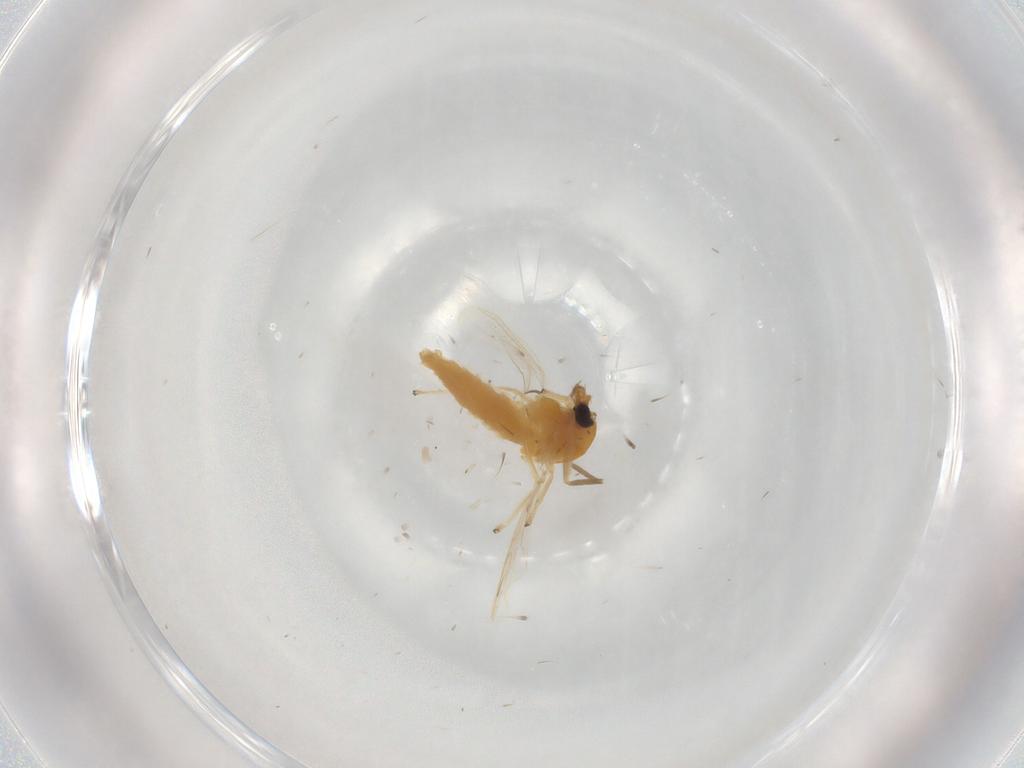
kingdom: Animalia
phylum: Arthropoda
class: Insecta
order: Diptera
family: Chironomidae
